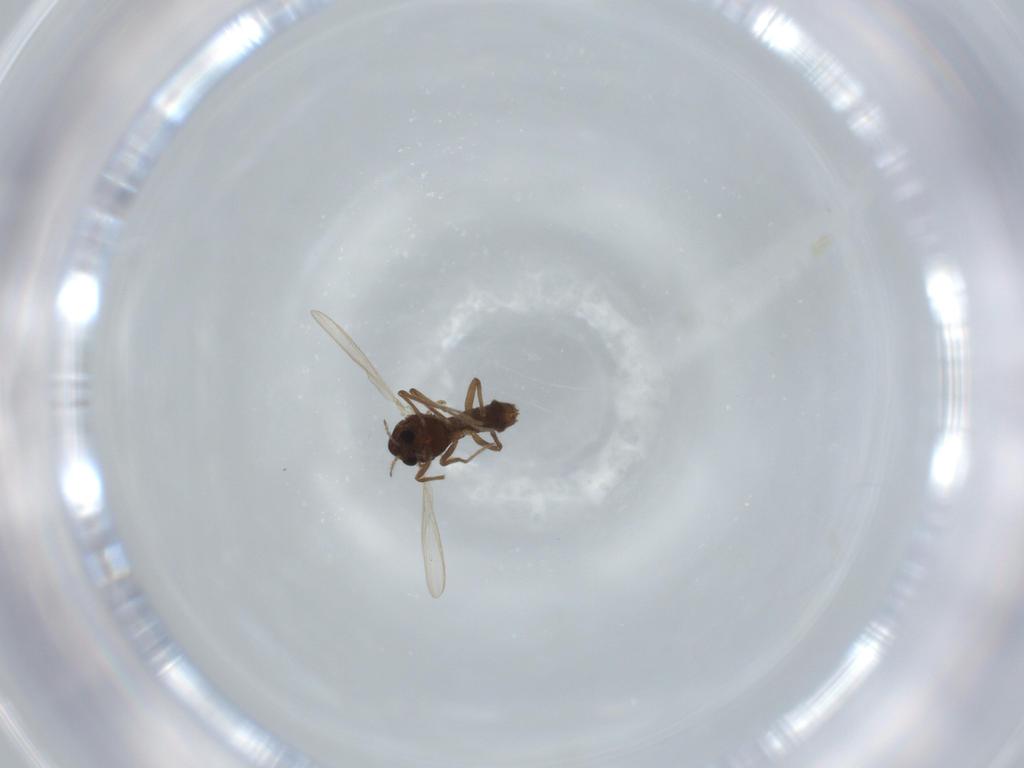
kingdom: Animalia
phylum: Arthropoda
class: Insecta
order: Diptera
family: Chironomidae
